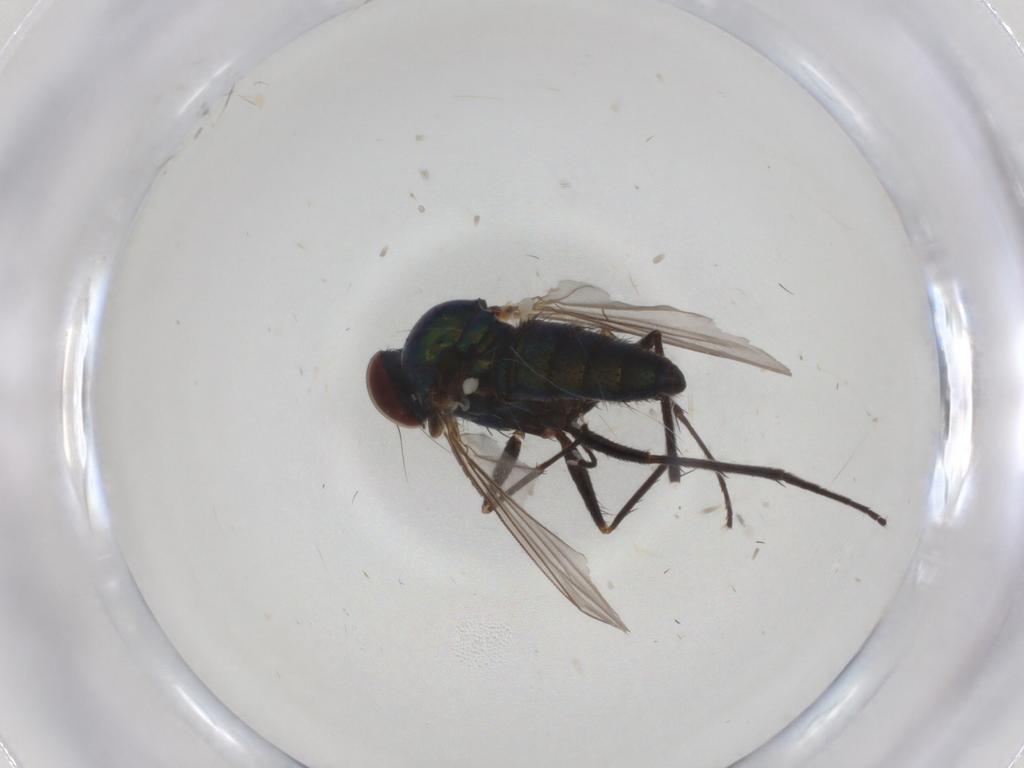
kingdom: Animalia
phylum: Arthropoda
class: Insecta
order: Diptera
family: Dolichopodidae
